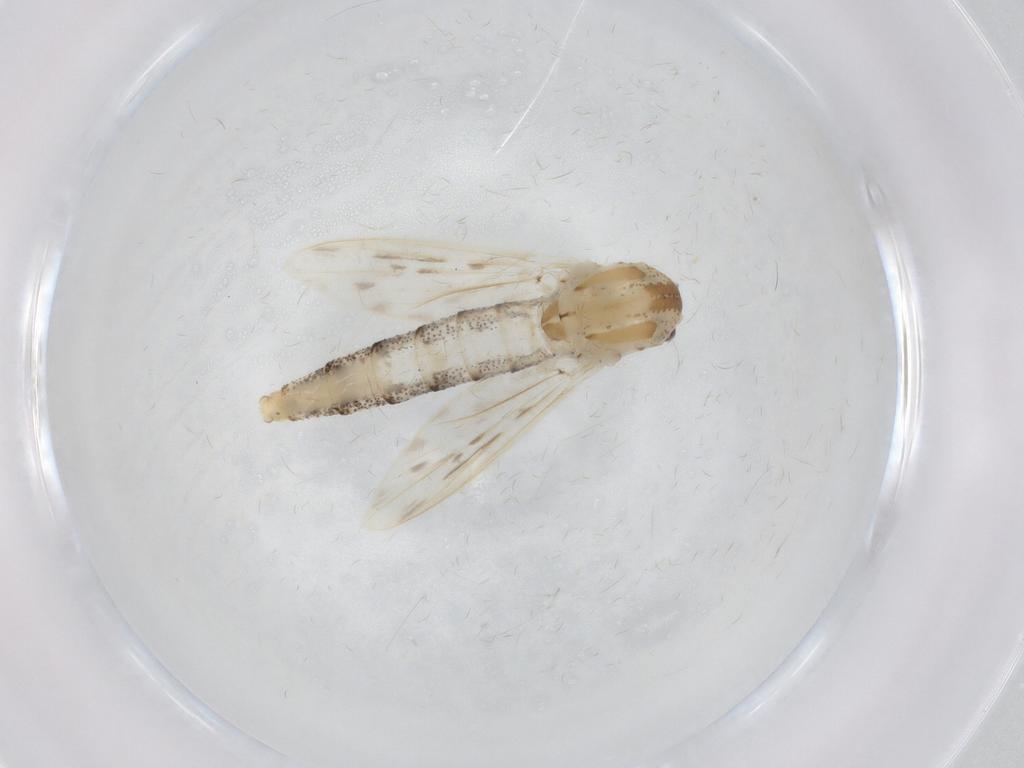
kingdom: Animalia
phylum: Arthropoda
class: Insecta
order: Diptera
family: Chaoboridae
